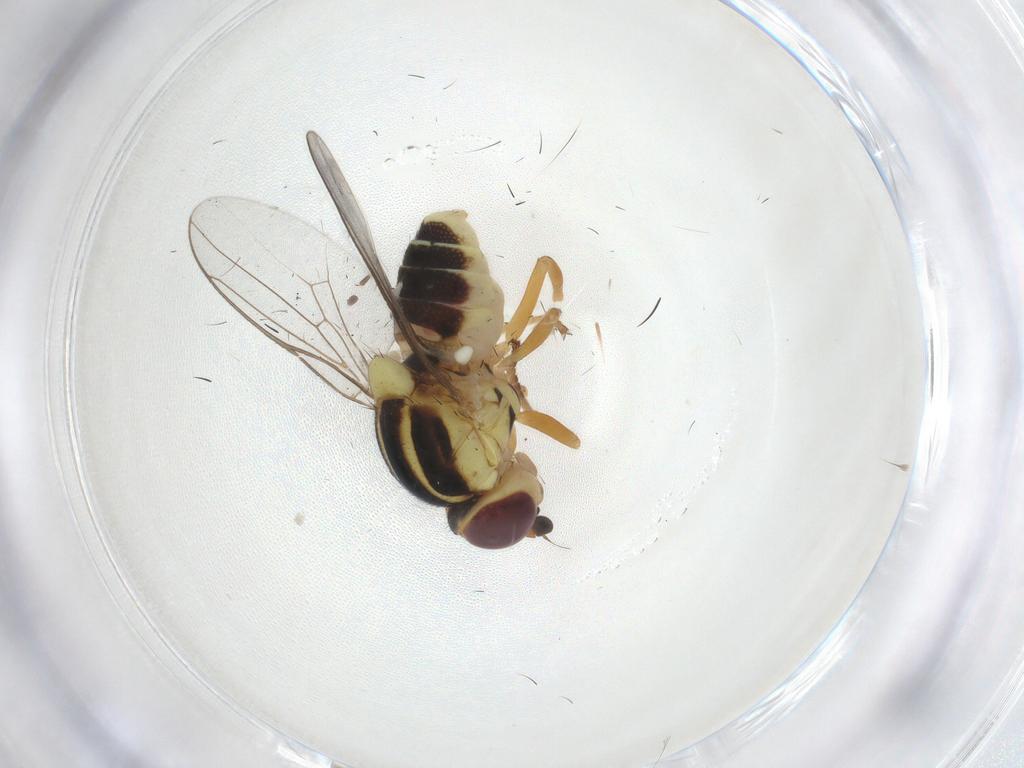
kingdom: Animalia
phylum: Arthropoda
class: Insecta
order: Diptera
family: Chloropidae
